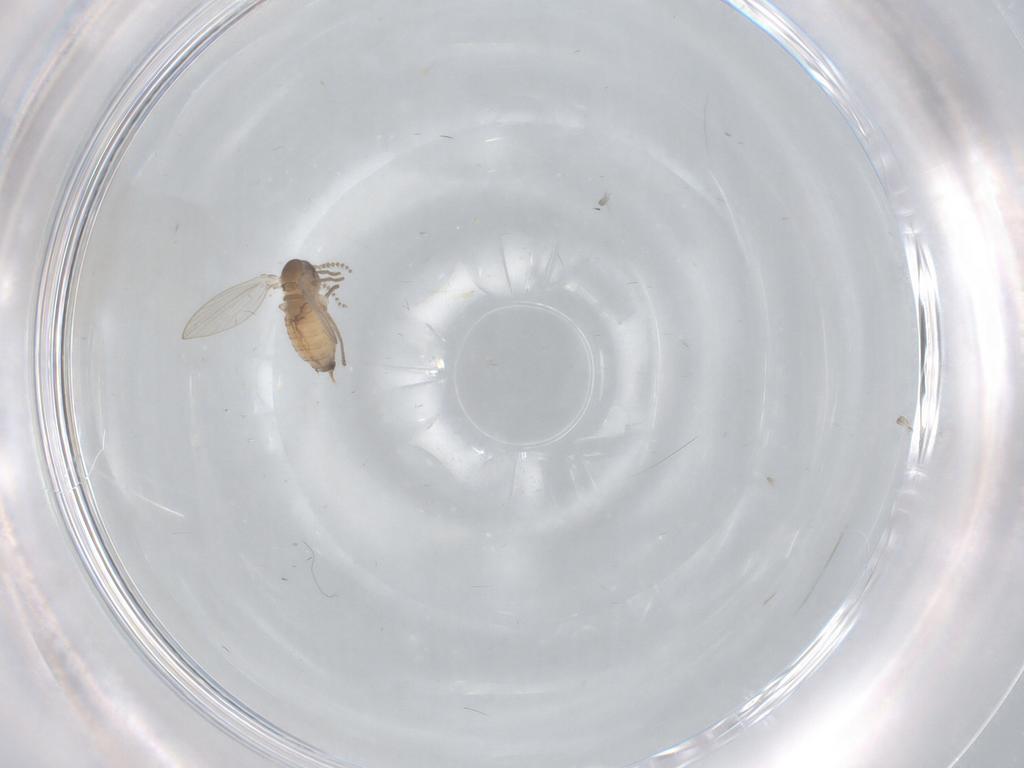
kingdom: Animalia
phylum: Arthropoda
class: Insecta
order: Diptera
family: Psychodidae
